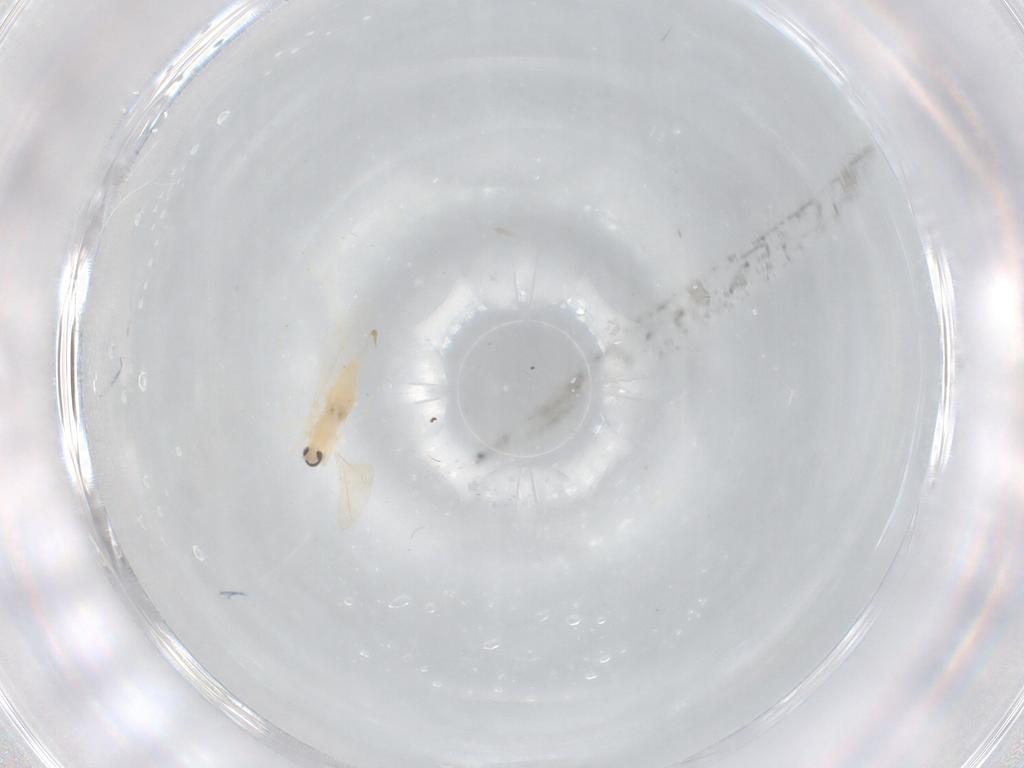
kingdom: Animalia
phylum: Arthropoda
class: Insecta
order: Diptera
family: Cecidomyiidae
